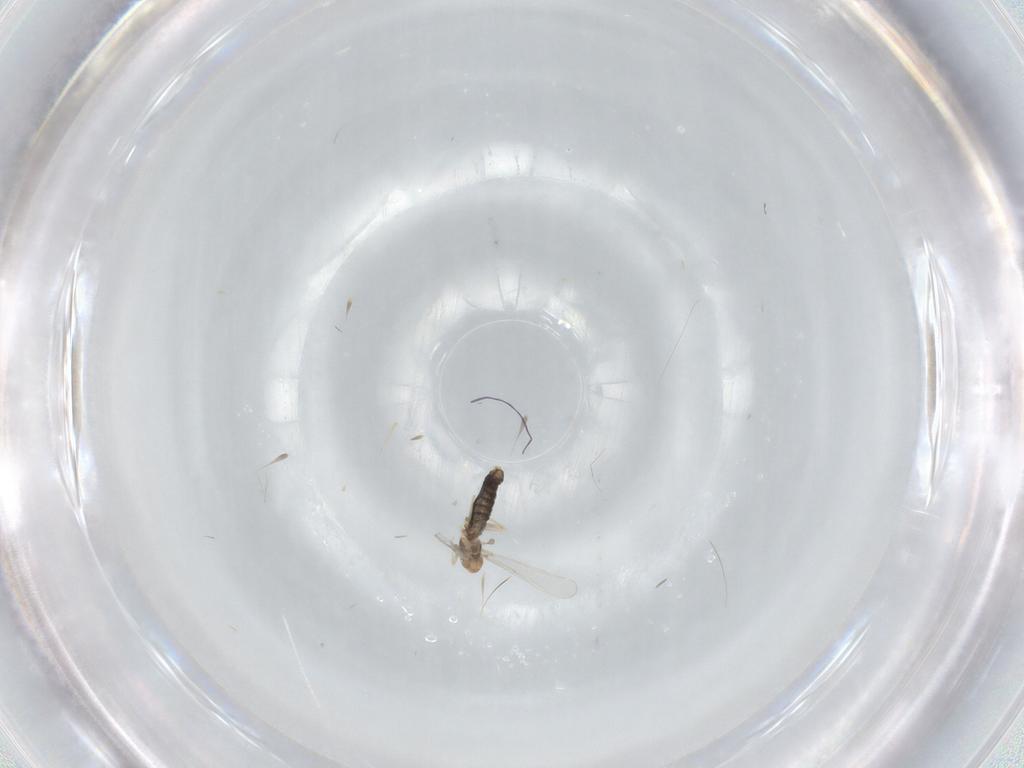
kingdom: Animalia
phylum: Arthropoda
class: Insecta
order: Diptera
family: Chironomidae
